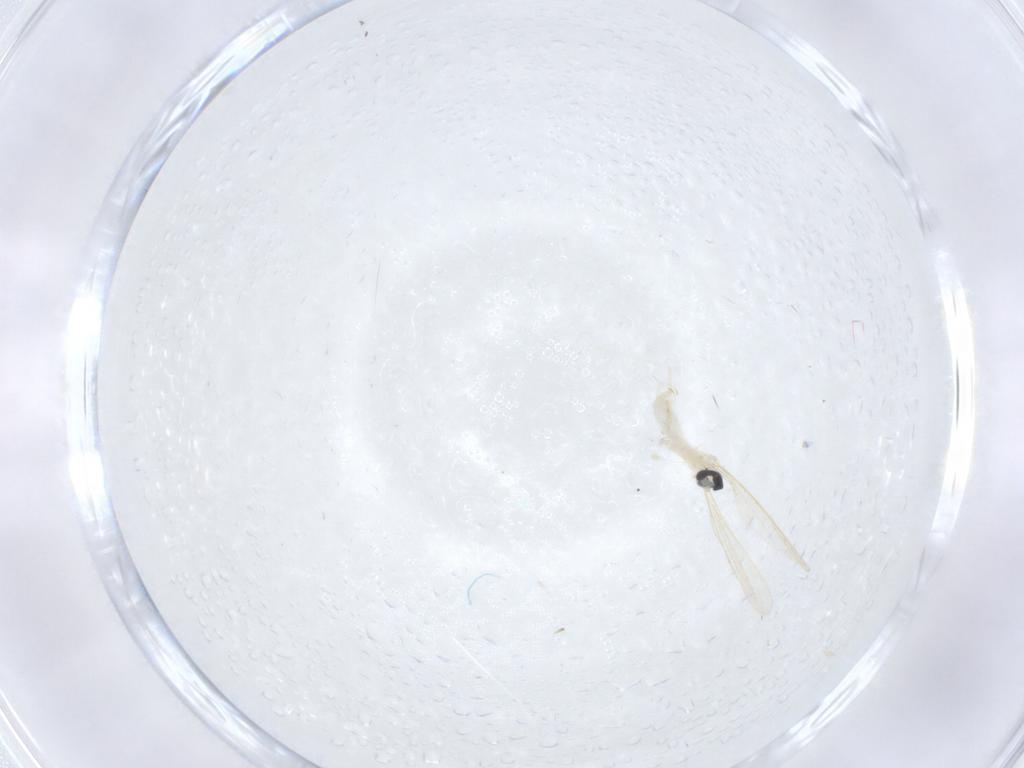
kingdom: Animalia
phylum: Arthropoda
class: Insecta
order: Diptera
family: Cecidomyiidae
